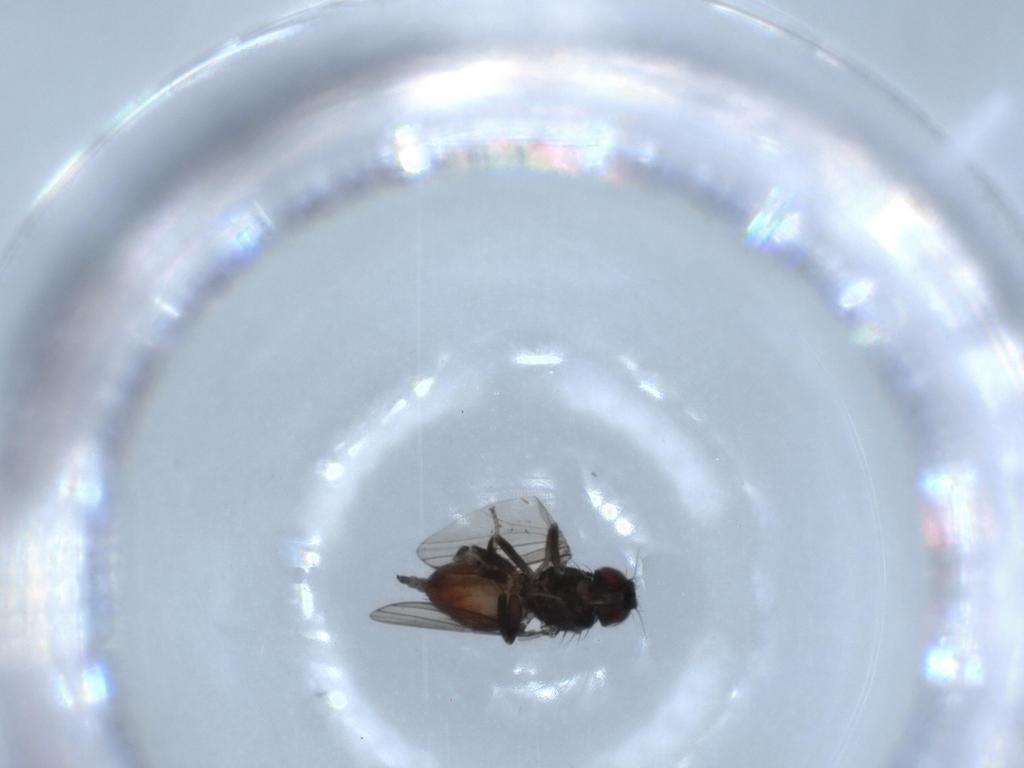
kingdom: Animalia
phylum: Arthropoda
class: Insecta
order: Diptera
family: Milichiidae
